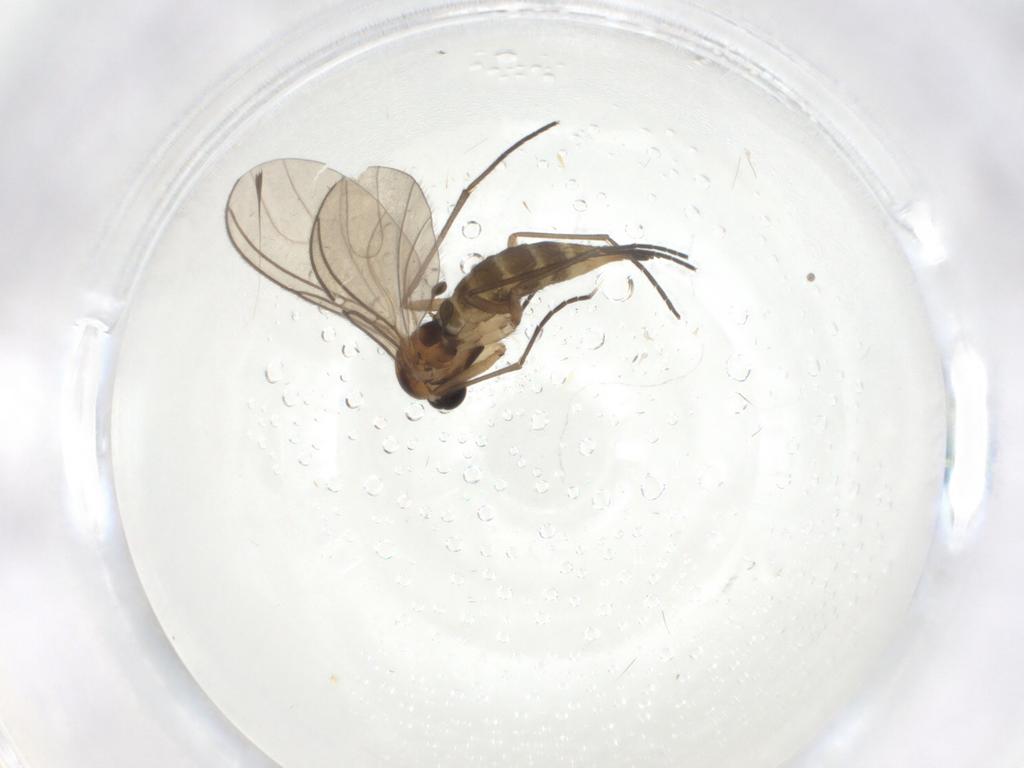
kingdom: Animalia
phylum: Arthropoda
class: Insecta
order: Diptera
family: Sciaridae
